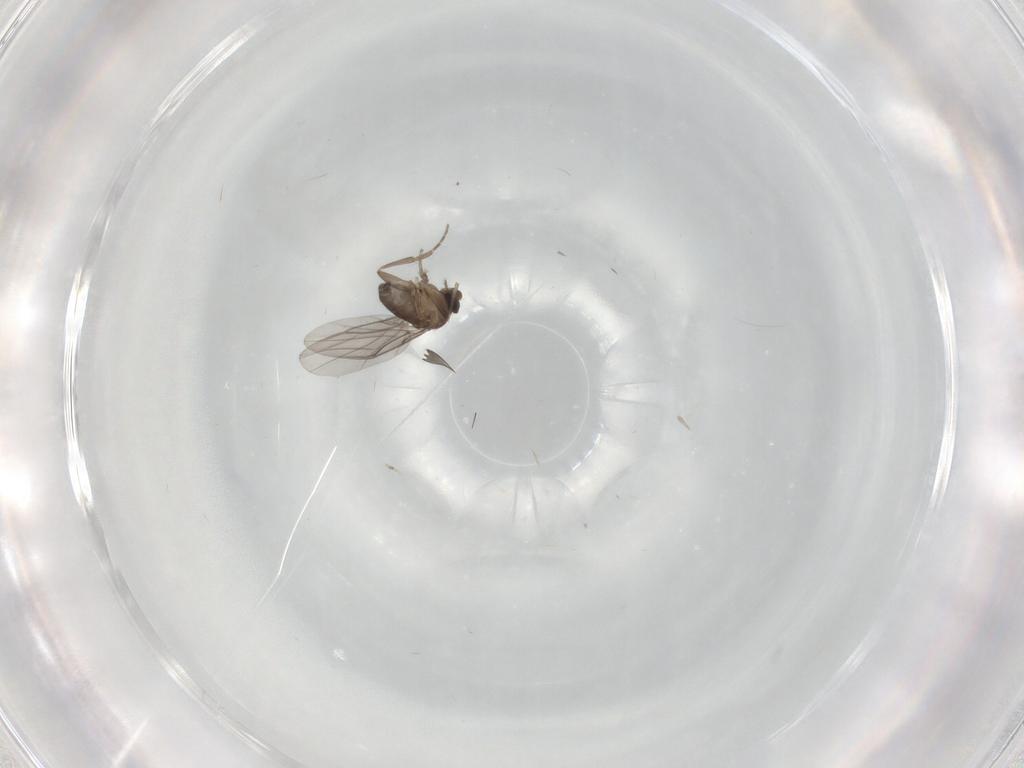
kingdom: Animalia
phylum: Arthropoda
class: Insecta
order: Diptera
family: Phoridae
